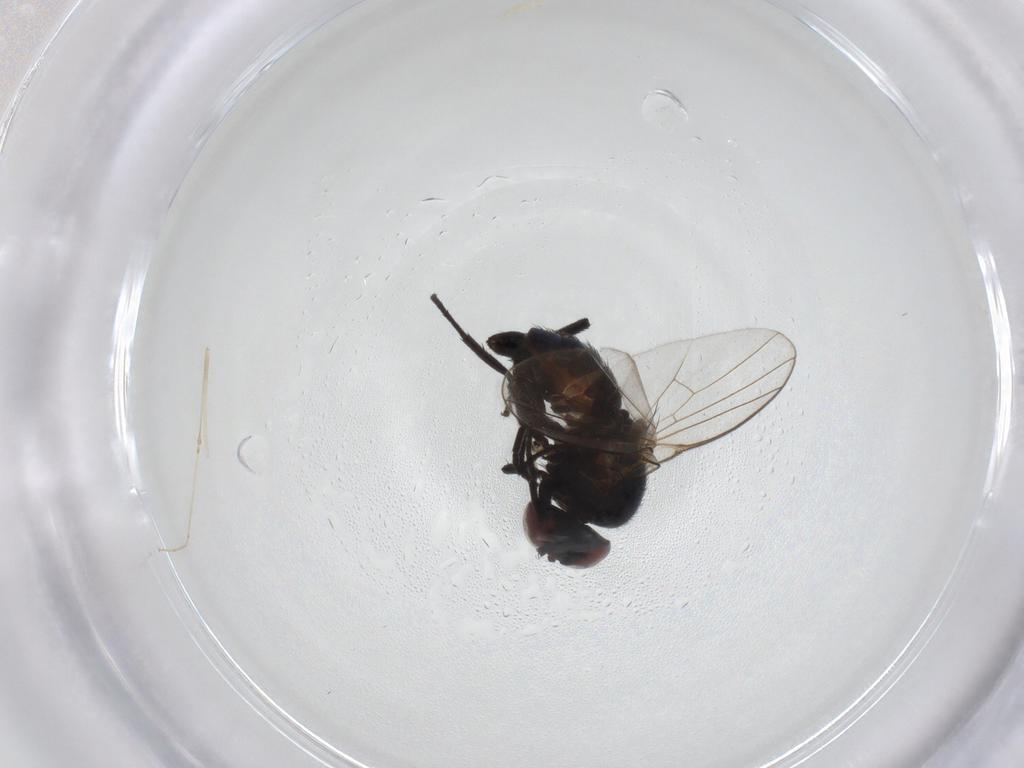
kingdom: Animalia
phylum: Arthropoda
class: Insecta
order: Diptera
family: Agromyzidae
